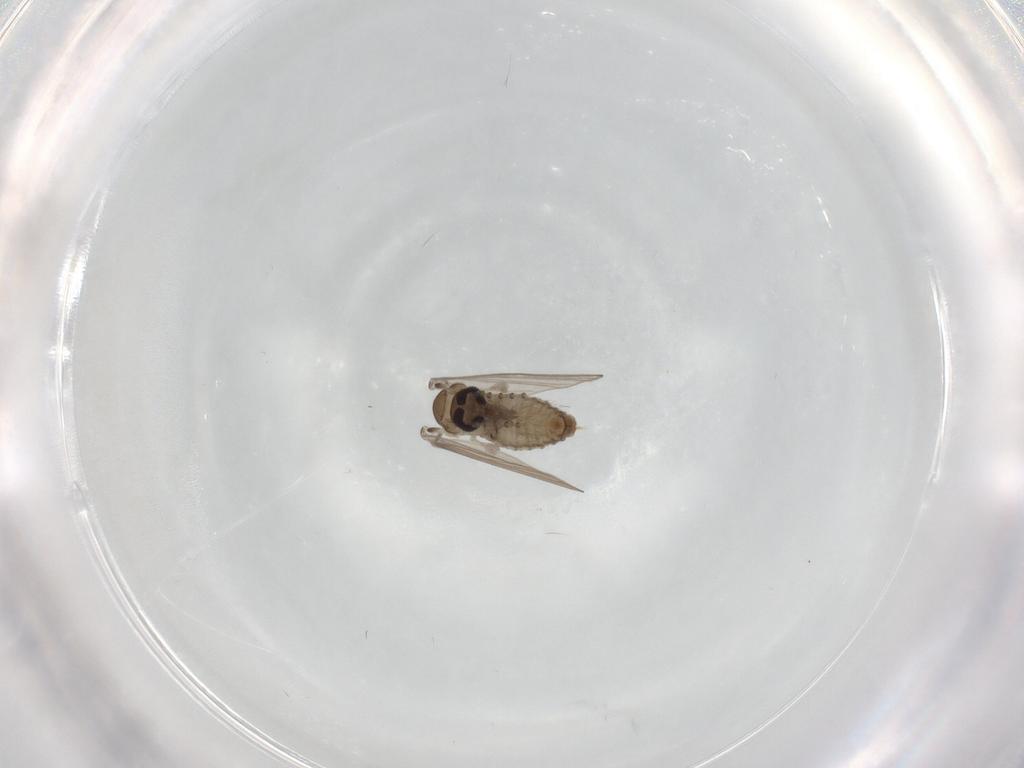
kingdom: Animalia
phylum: Arthropoda
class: Insecta
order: Diptera
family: Psychodidae
